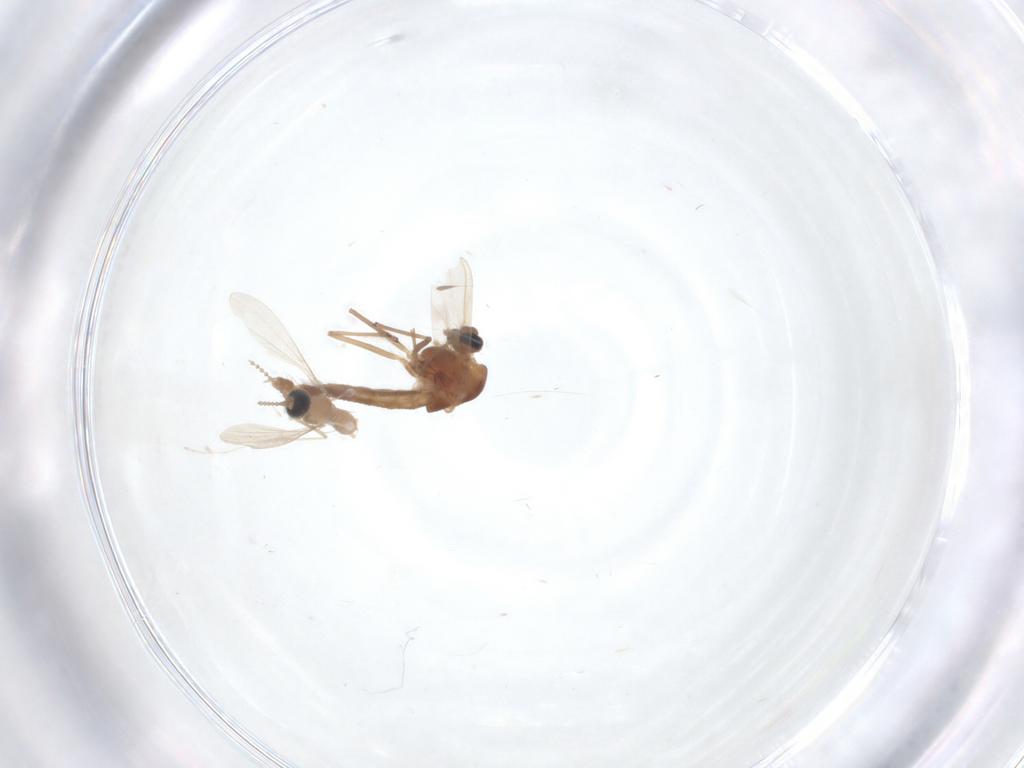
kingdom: Animalia
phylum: Arthropoda
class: Insecta
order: Diptera
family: Chironomidae
